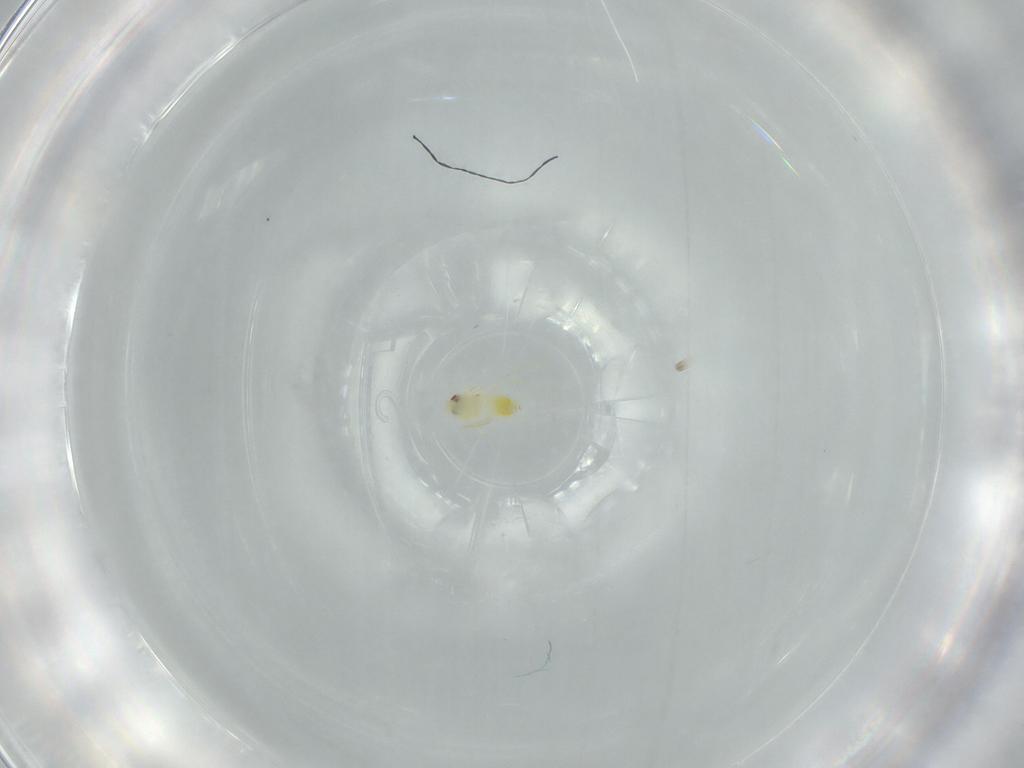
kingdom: Animalia
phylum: Arthropoda
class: Insecta
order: Hemiptera
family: Aleyrodidae
